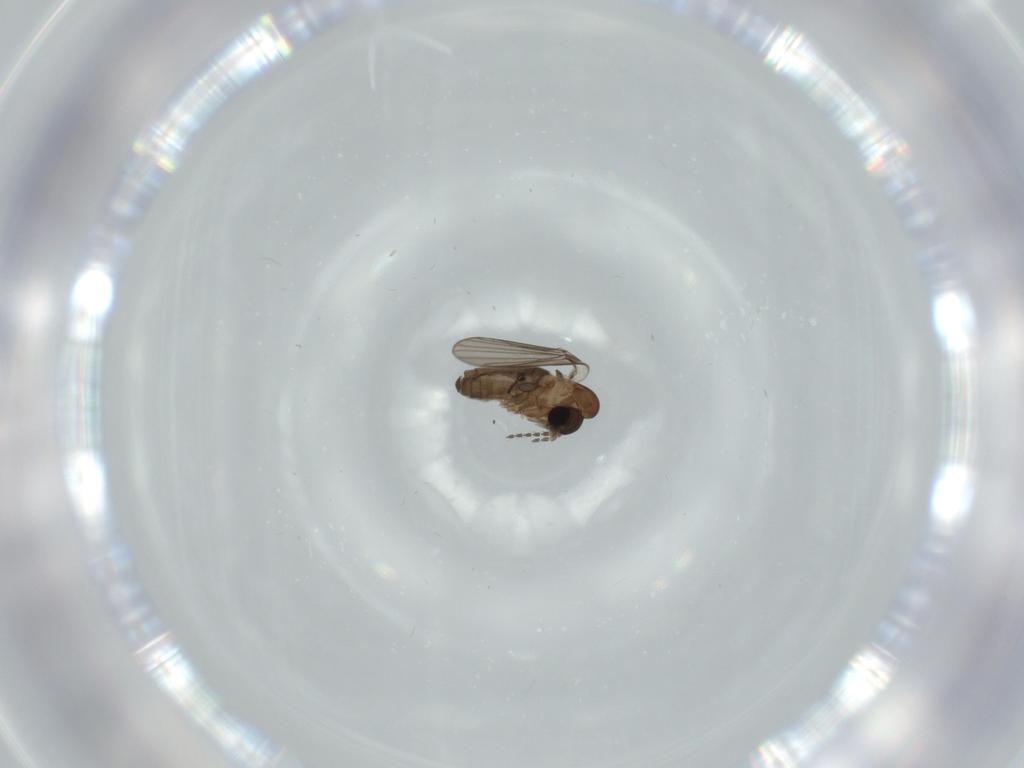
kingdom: Animalia
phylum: Arthropoda
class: Insecta
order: Diptera
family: Psychodidae
